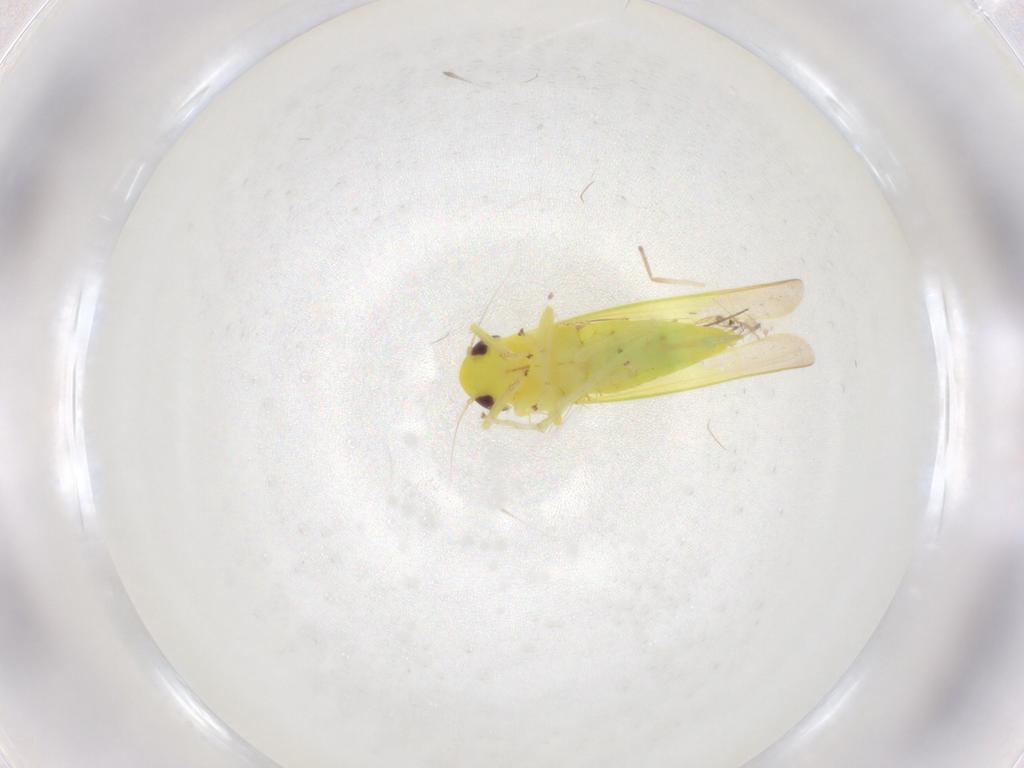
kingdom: Animalia
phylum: Arthropoda
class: Insecta
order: Hemiptera
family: Cicadellidae
